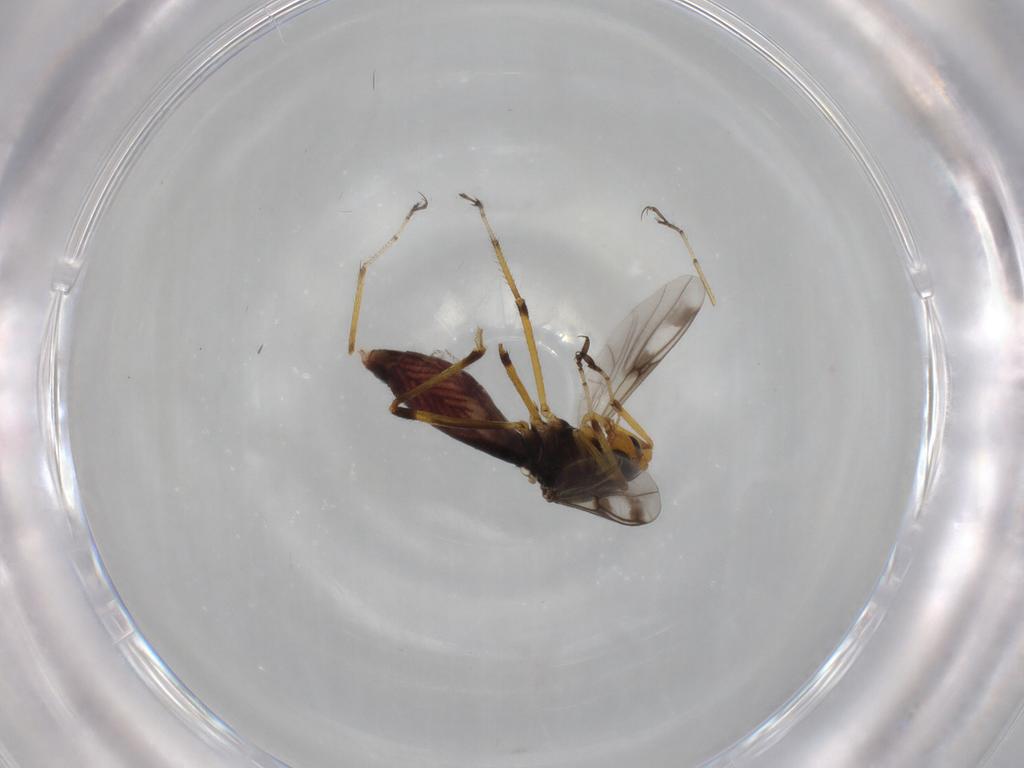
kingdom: Animalia
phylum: Arthropoda
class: Insecta
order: Diptera
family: Ceratopogonidae
